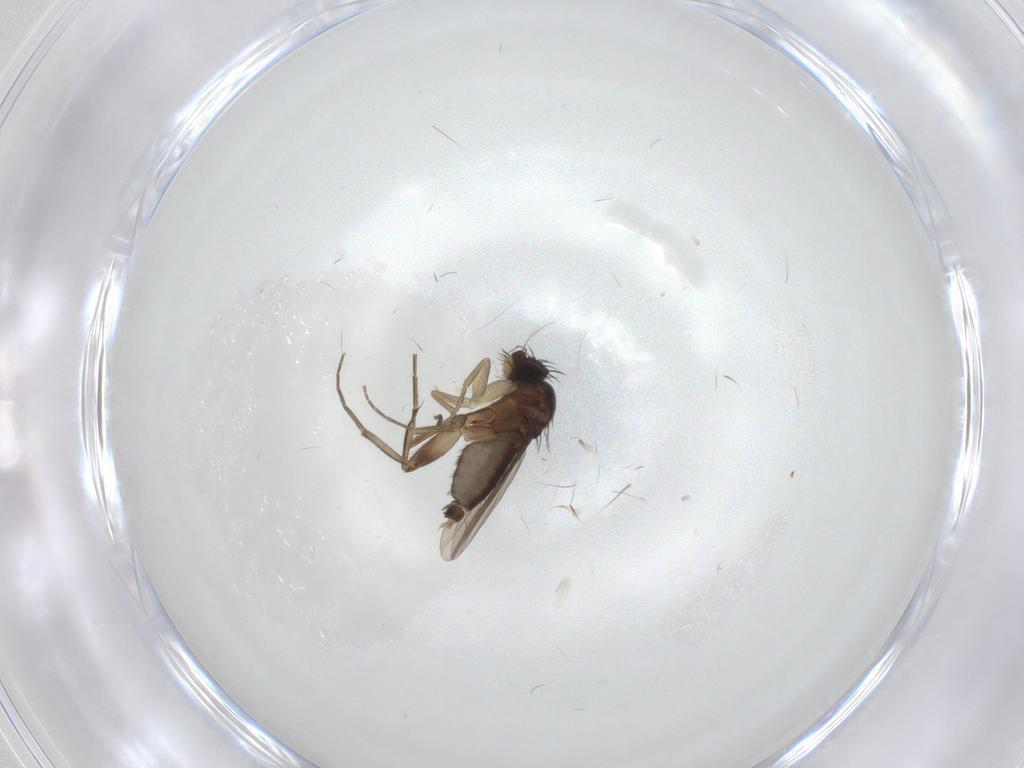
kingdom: Animalia
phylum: Arthropoda
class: Insecta
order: Diptera
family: Phoridae
